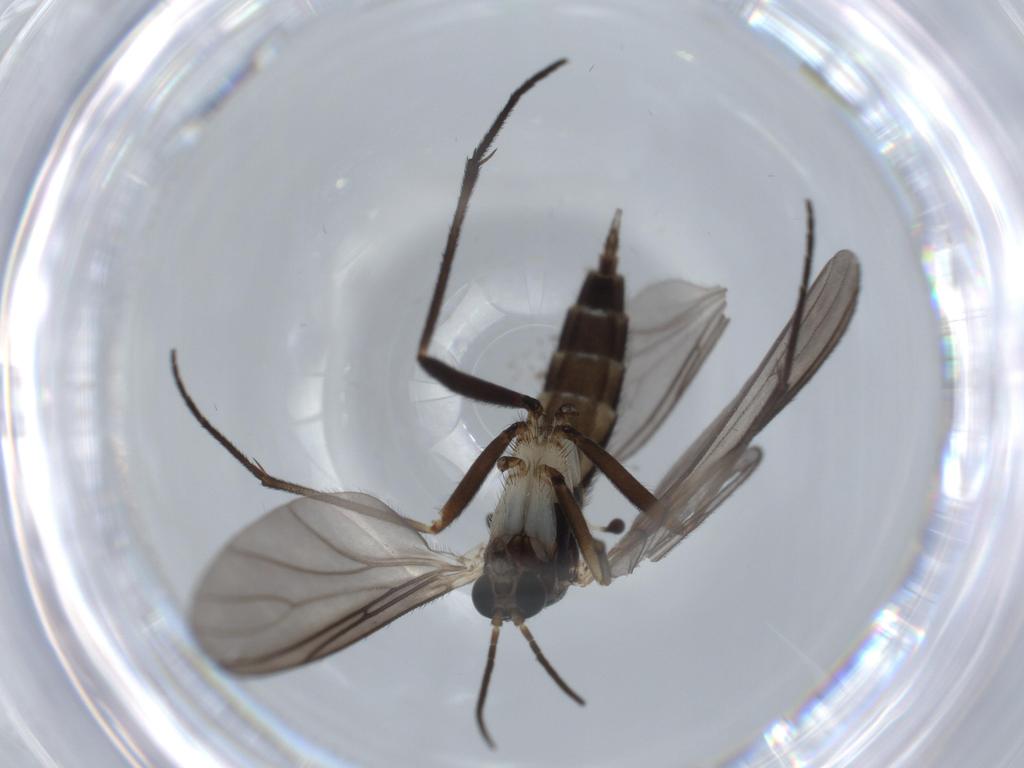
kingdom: Animalia
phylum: Arthropoda
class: Insecta
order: Diptera
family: Sciaridae
